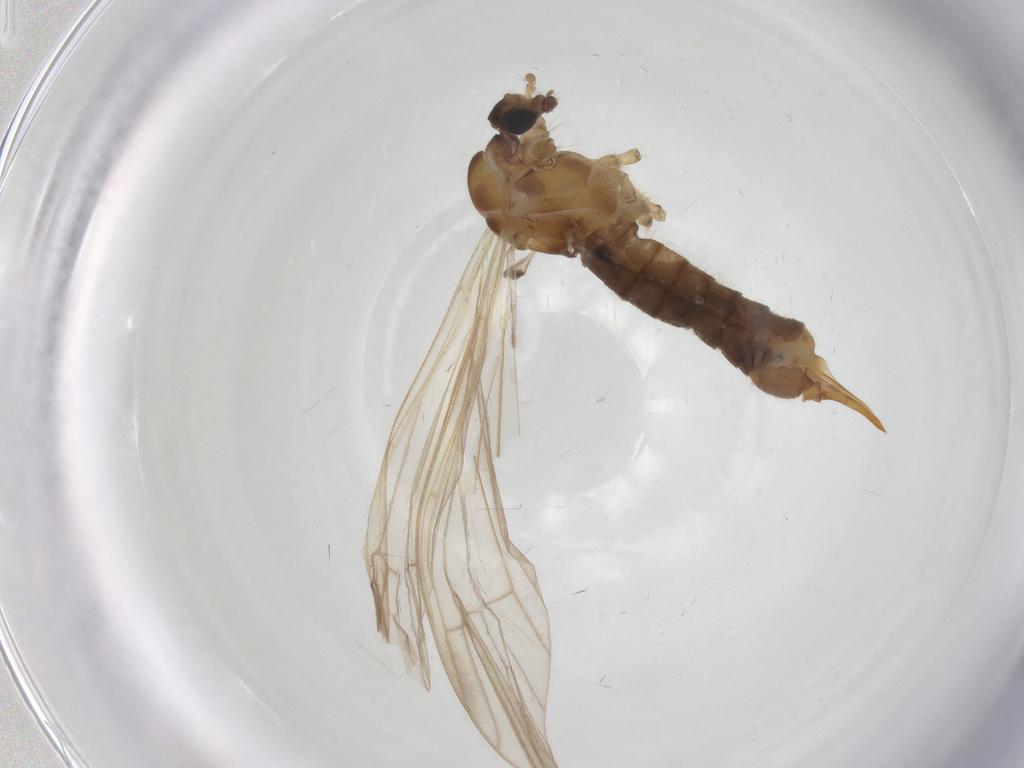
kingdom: Animalia
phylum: Arthropoda
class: Insecta
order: Diptera
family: Limoniidae
